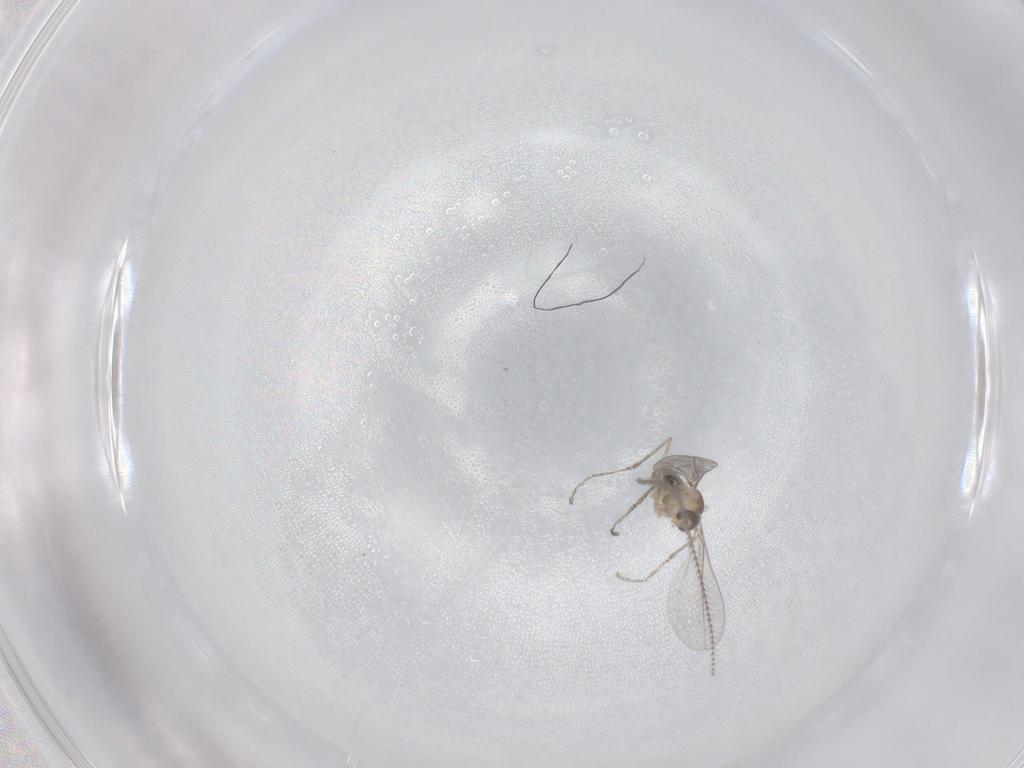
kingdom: Animalia
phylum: Arthropoda
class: Insecta
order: Diptera
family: Cecidomyiidae
